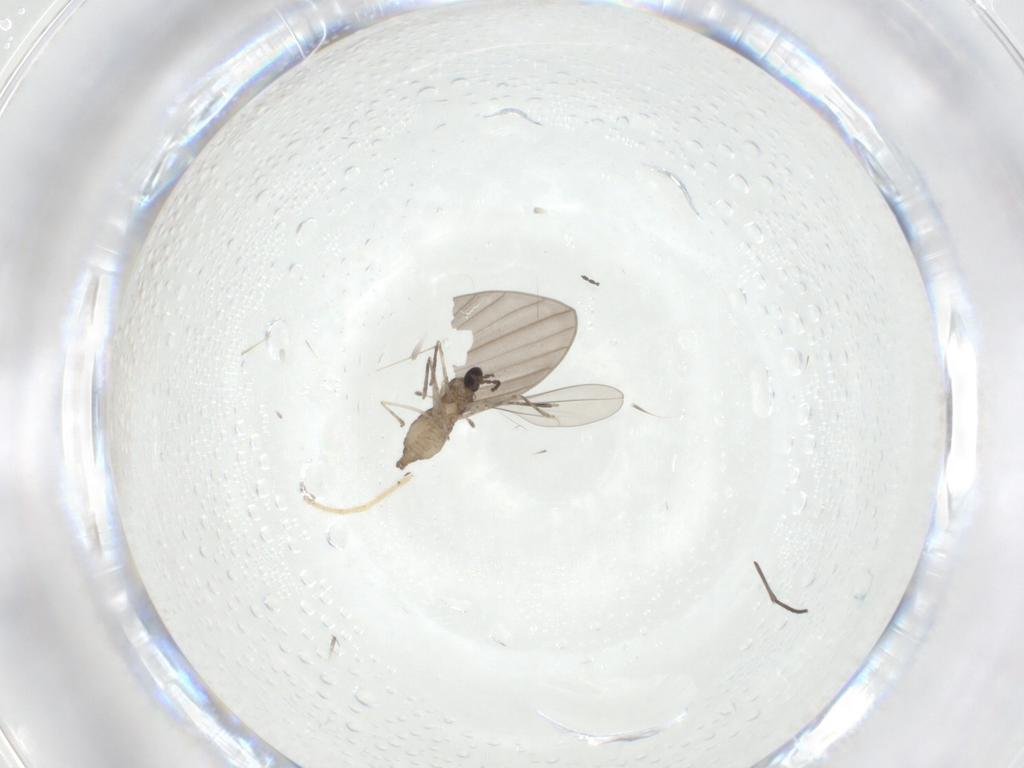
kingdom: Animalia
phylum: Arthropoda
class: Insecta
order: Diptera
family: Cecidomyiidae
